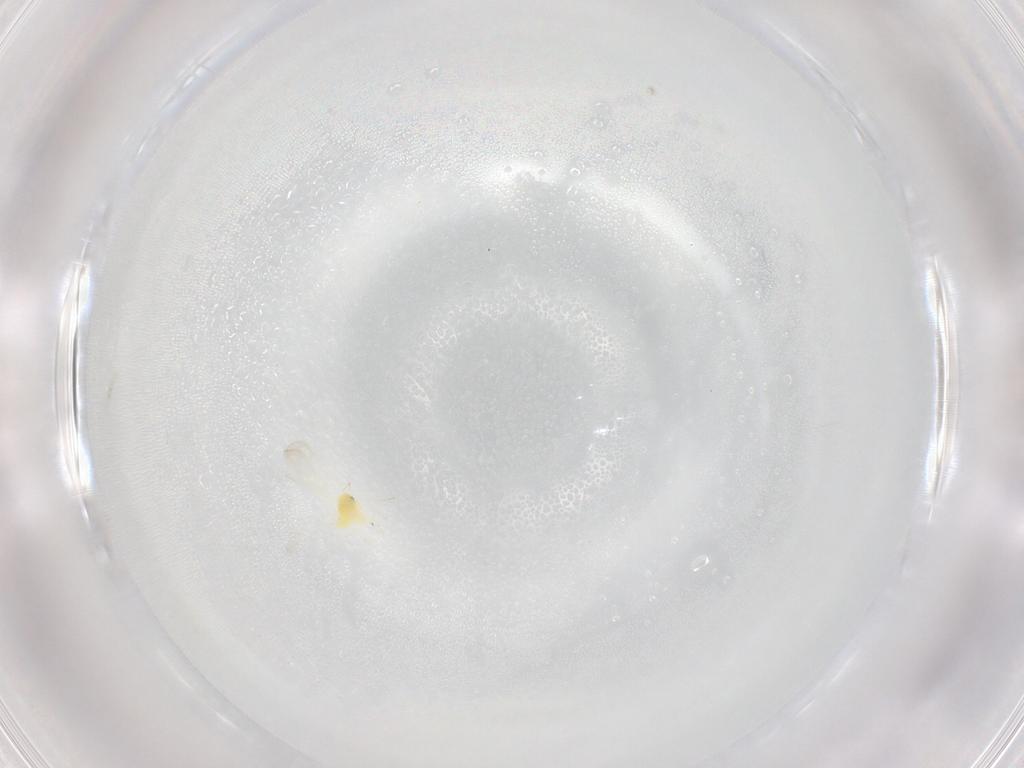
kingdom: Animalia
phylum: Arthropoda
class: Insecta
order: Hemiptera
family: Aleyrodidae
